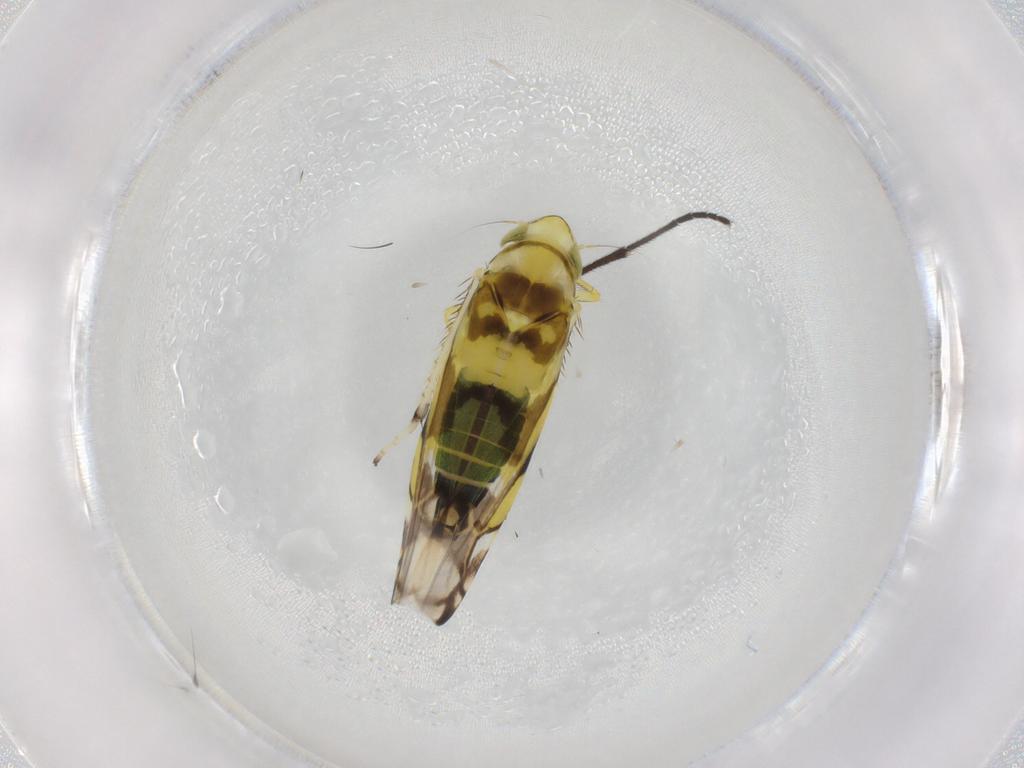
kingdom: Animalia
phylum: Arthropoda
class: Insecta
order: Hemiptera
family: Cicadellidae
